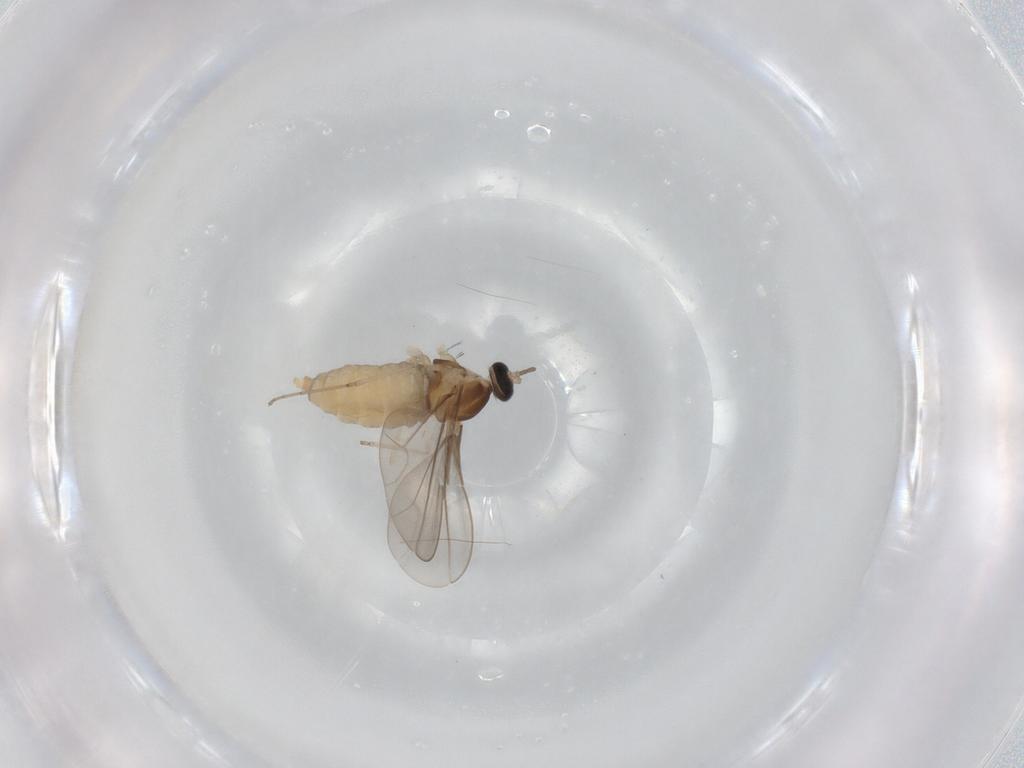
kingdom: Animalia
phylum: Arthropoda
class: Insecta
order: Diptera
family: Cecidomyiidae
